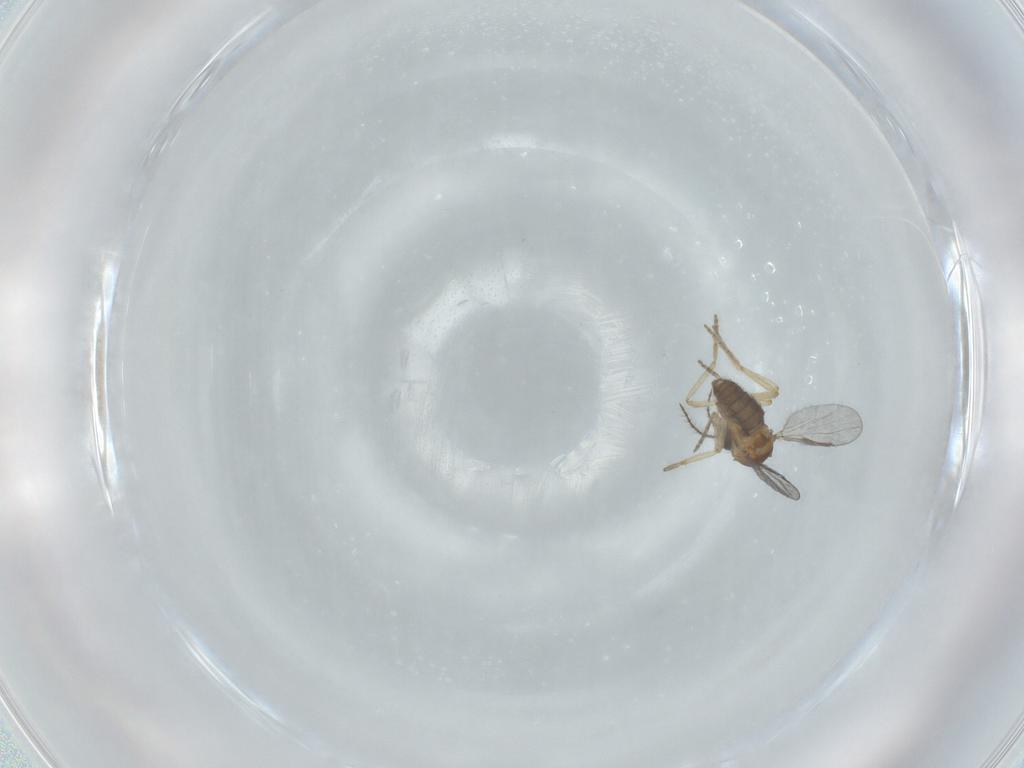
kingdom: Animalia
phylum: Arthropoda
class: Insecta
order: Diptera
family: Ceratopogonidae
